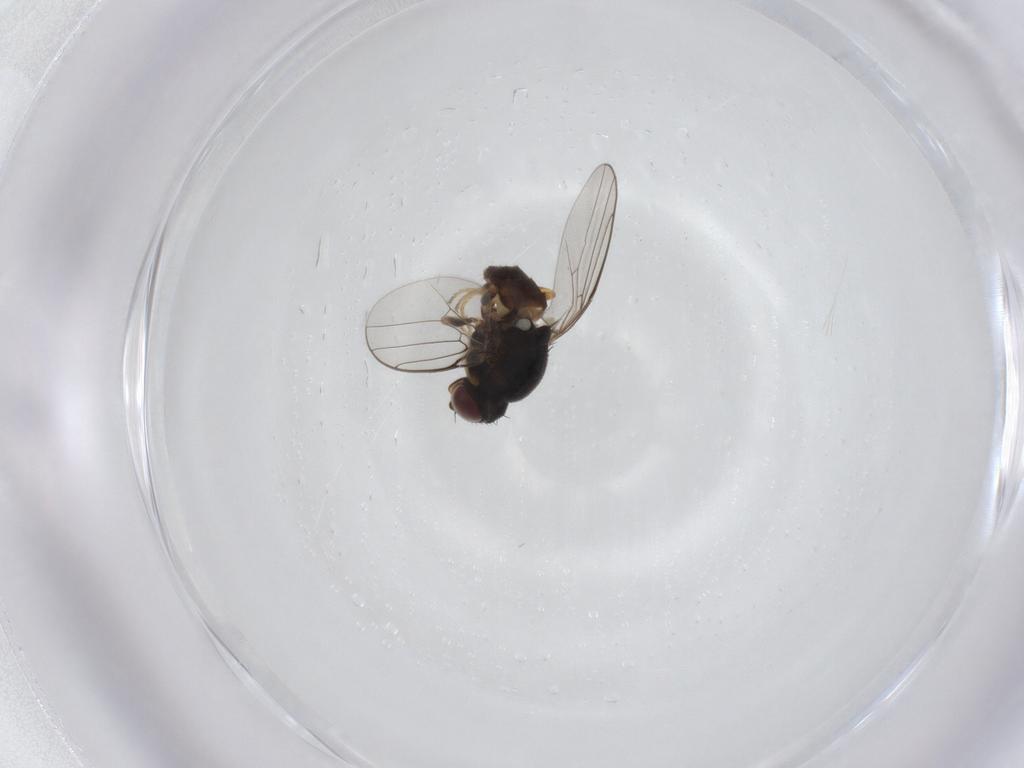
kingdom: Animalia
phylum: Arthropoda
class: Insecta
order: Diptera
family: Chloropidae
